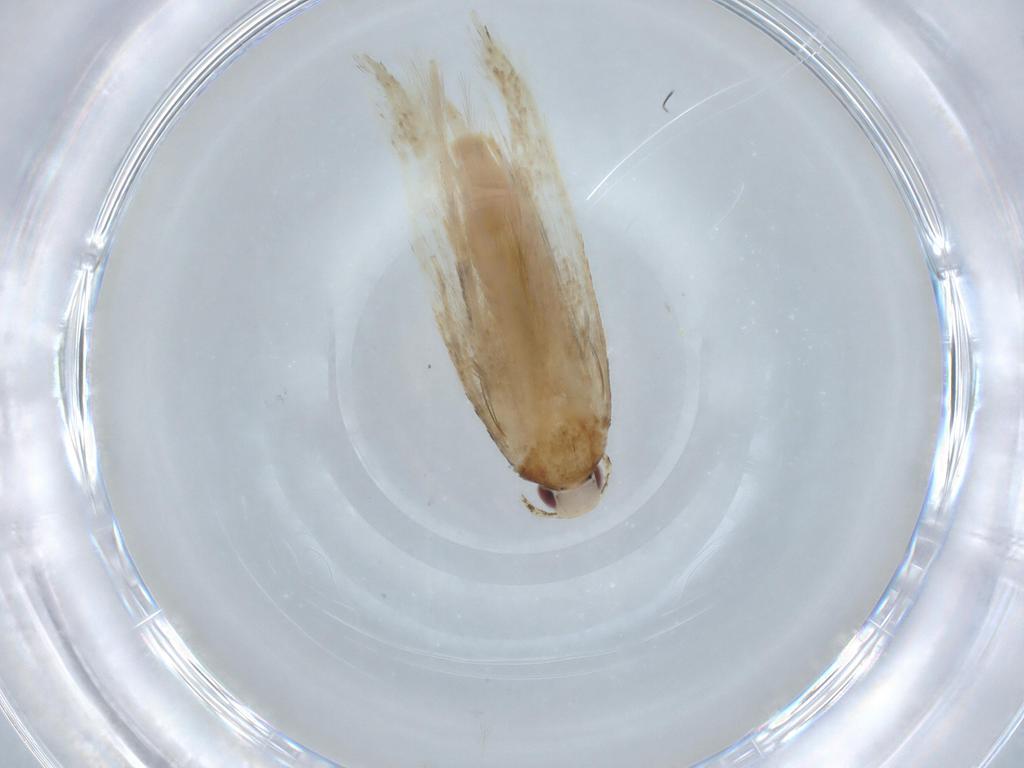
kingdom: Animalia
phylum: Arthropoda
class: Insecta
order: Lepidoptera
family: Cosmopterigidae
